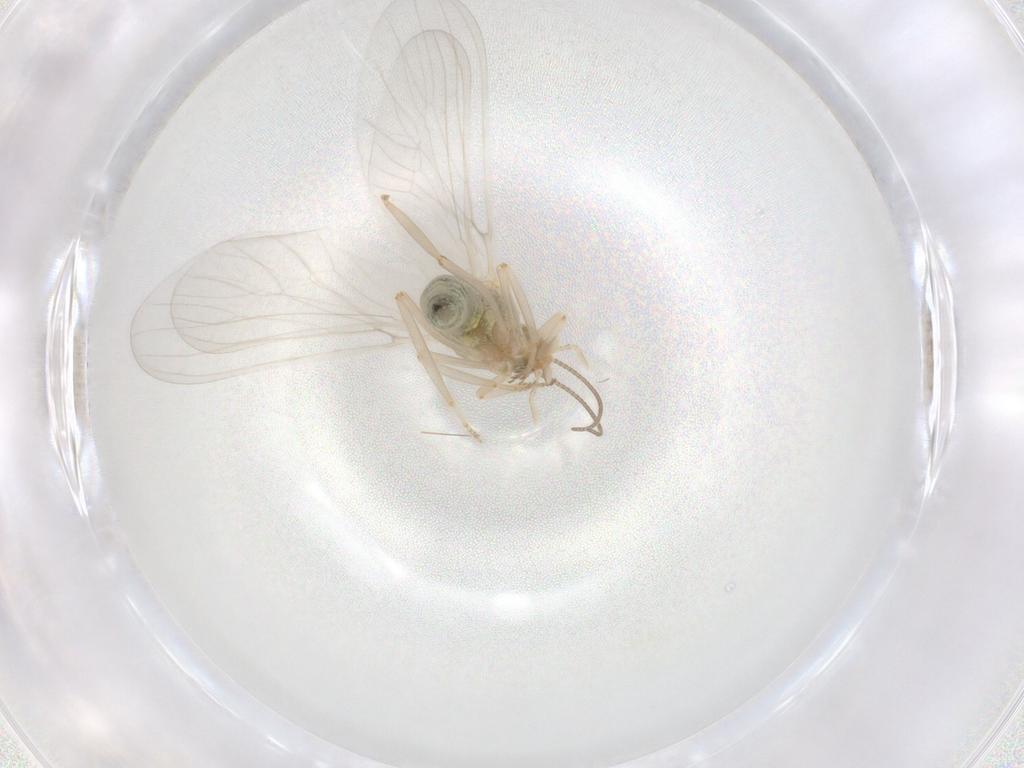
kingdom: Animalia
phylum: Arthropoda
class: Insecta
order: Neuroptera
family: Coniopterygidae
